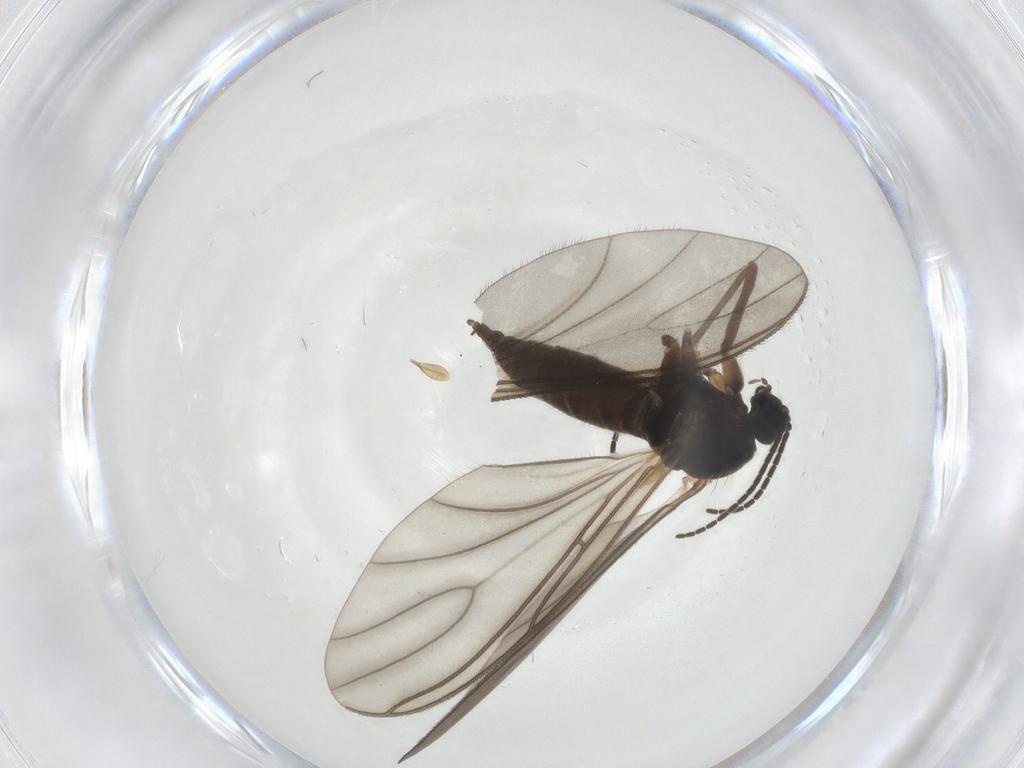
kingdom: Animalia
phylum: Arthropoda
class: Insecta
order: Diptera
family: Sciaridae
